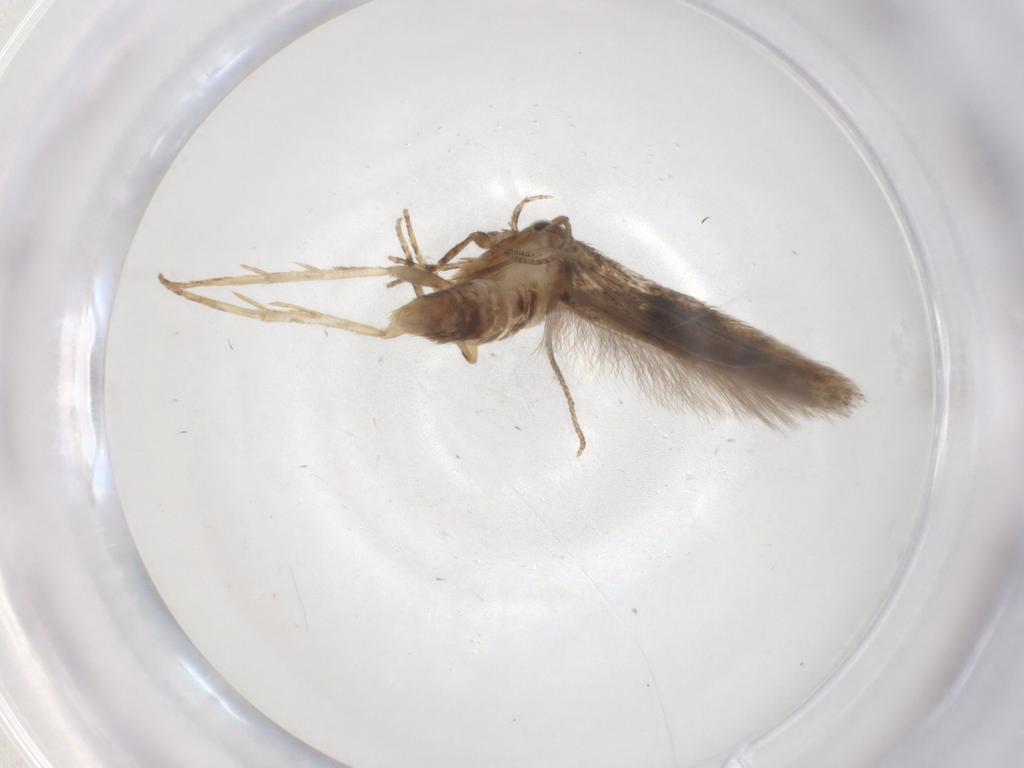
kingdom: Animalia
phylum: Arthropoda
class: Insecta
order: Lepidoptera
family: Gelechiidae
